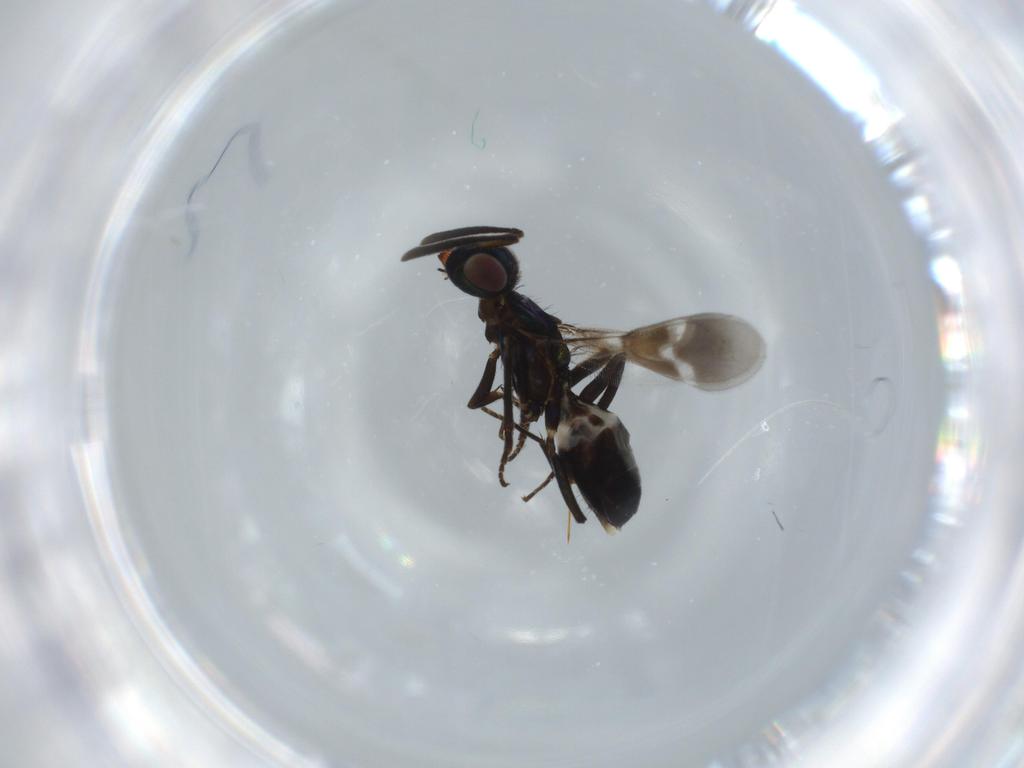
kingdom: Animalia
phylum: Arthropoda
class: Insecta
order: Hymenoptera
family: Eupelmidae
